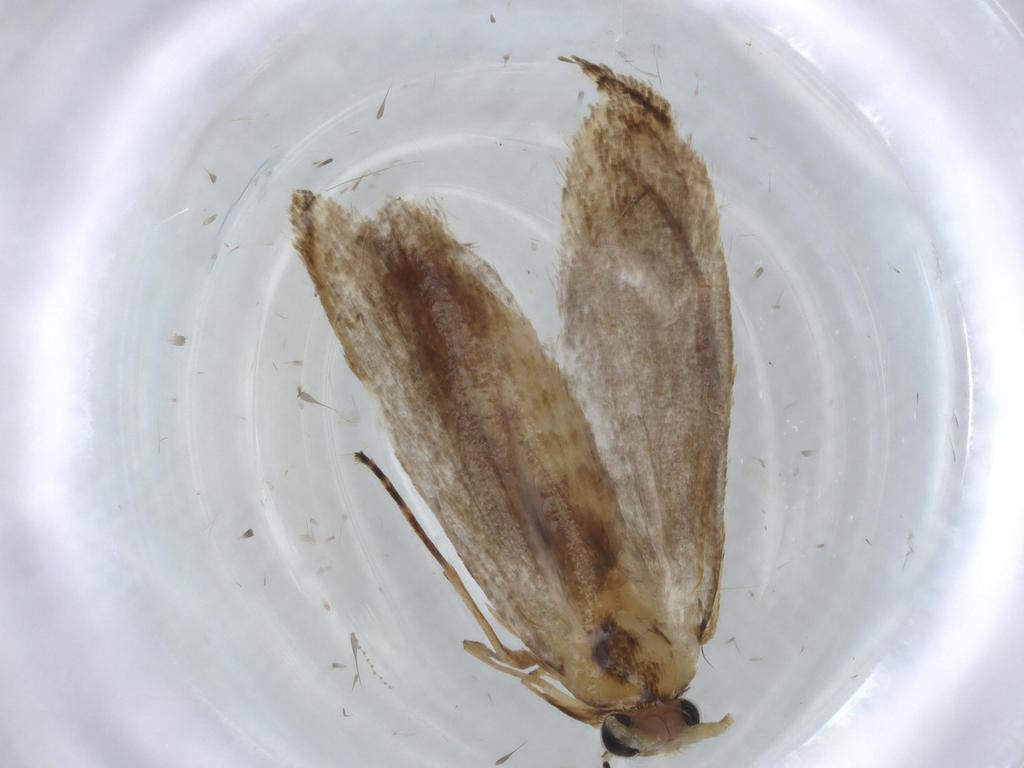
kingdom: Animalia
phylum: Arthropoda
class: Insecta
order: Lepidoptera
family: Tineidae
